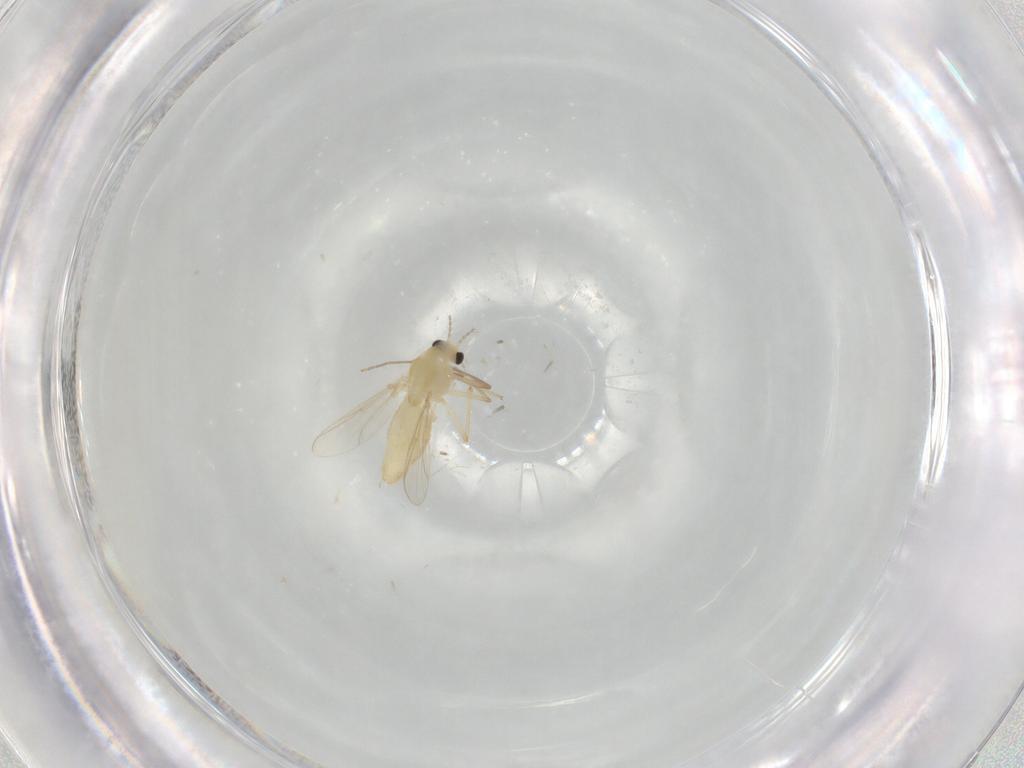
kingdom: Animalia
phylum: Arthropoda
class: Insecta
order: Diptera
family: Chironomidae
